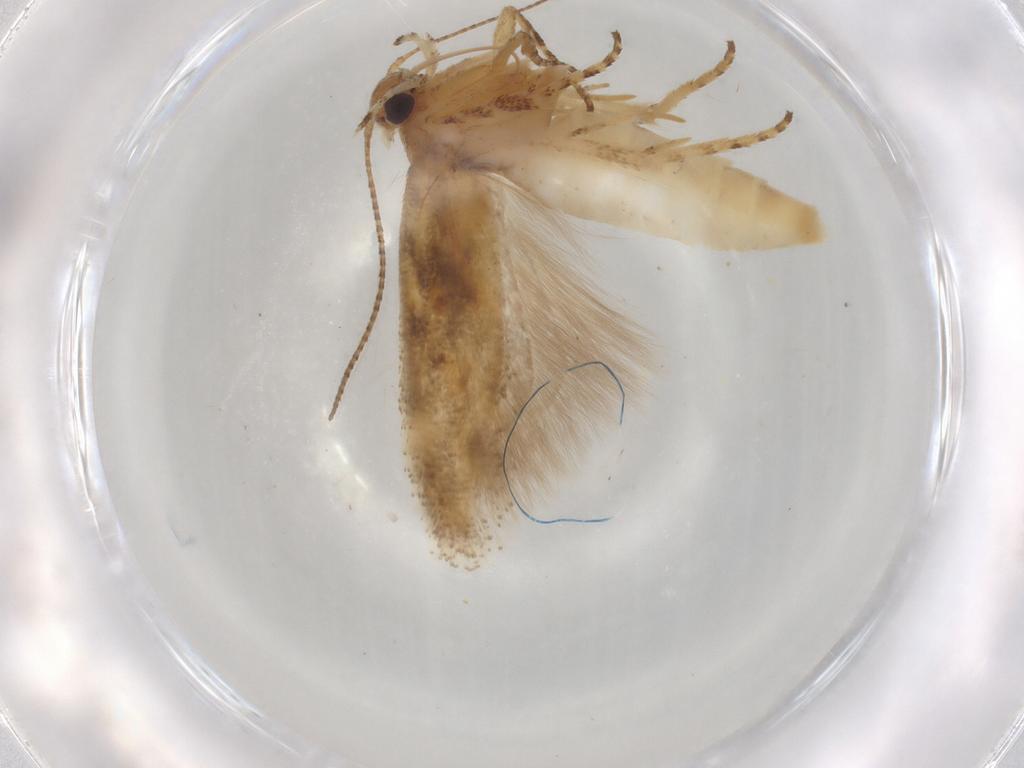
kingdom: Animalia
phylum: Arthropoda
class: Insecta
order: Lepidoptera
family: Gelechiidae
